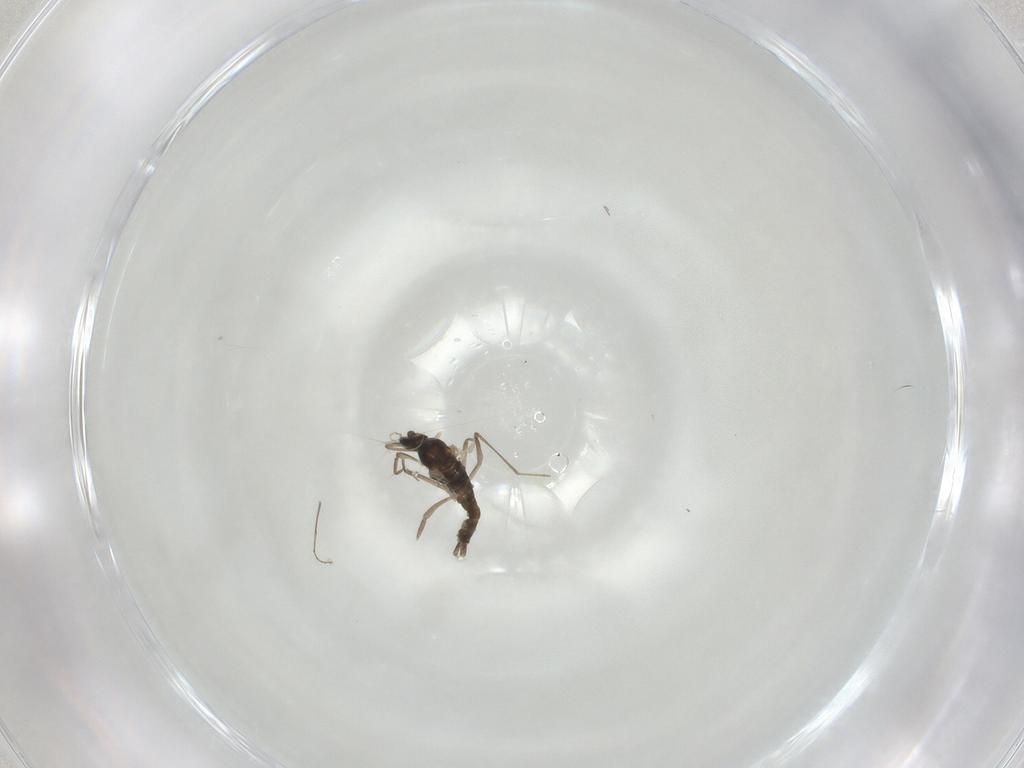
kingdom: Animalia
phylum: Arthropoda
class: Insecta
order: Diptera
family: Cecidomyiidae
